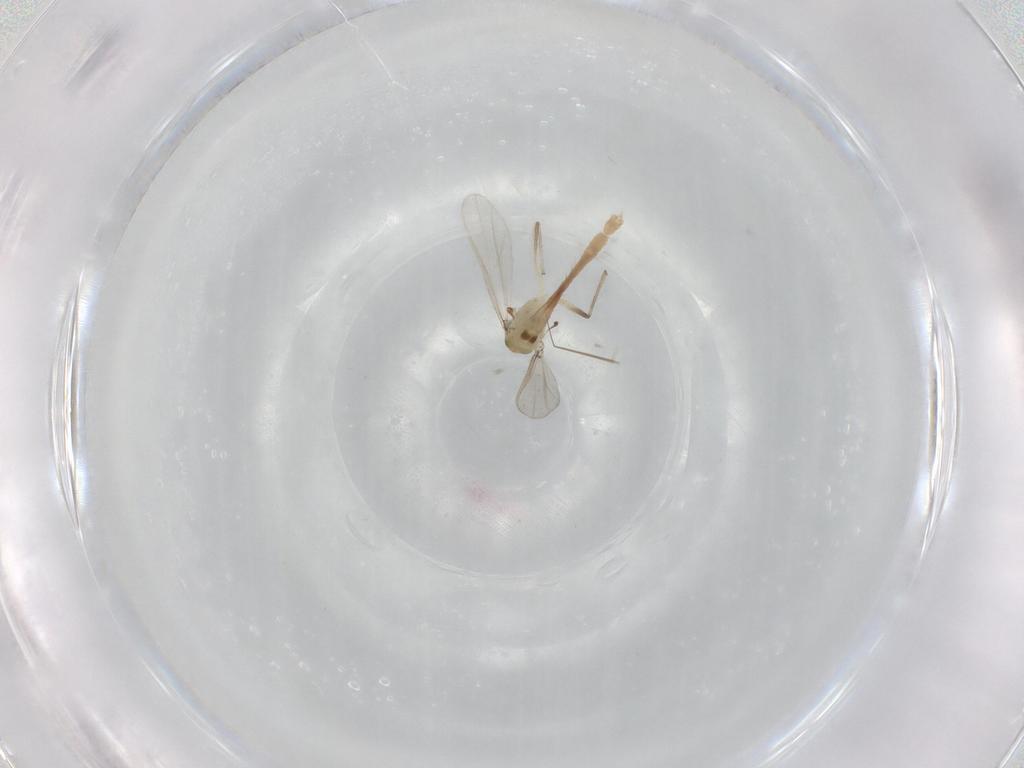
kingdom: Animalia
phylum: Arthropoda
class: Insecta
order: Diptera
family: Chironomidae
